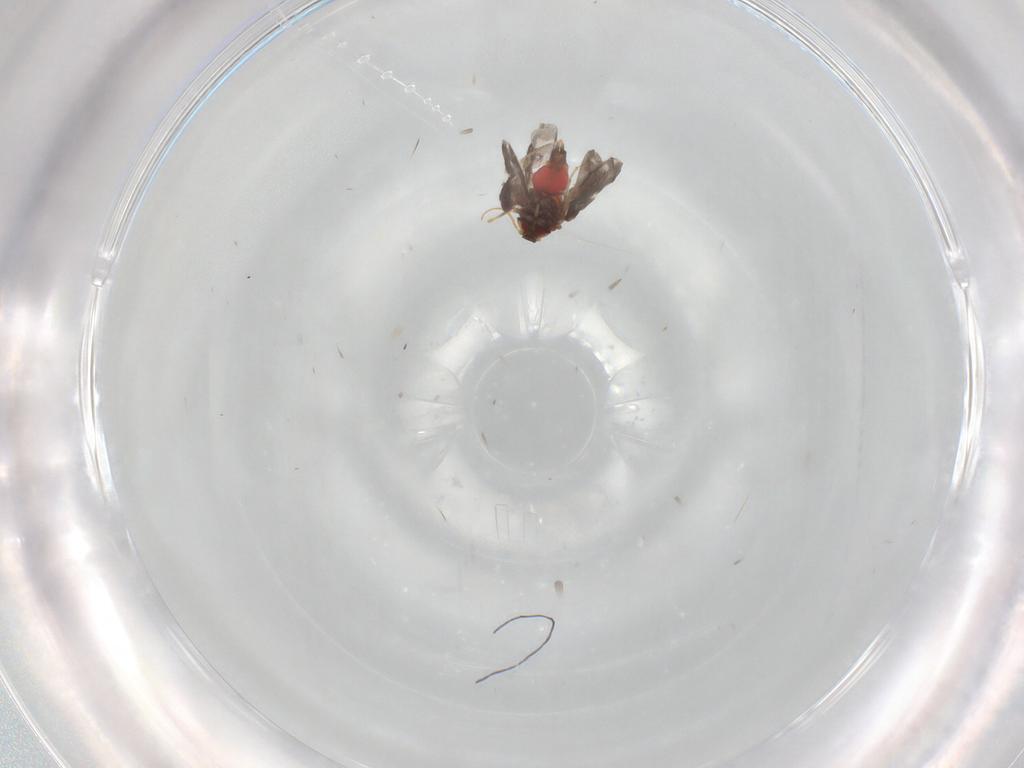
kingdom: Animalia
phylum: Arthropoda
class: Insecta
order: Hemiptera
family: Aleyrodidae
